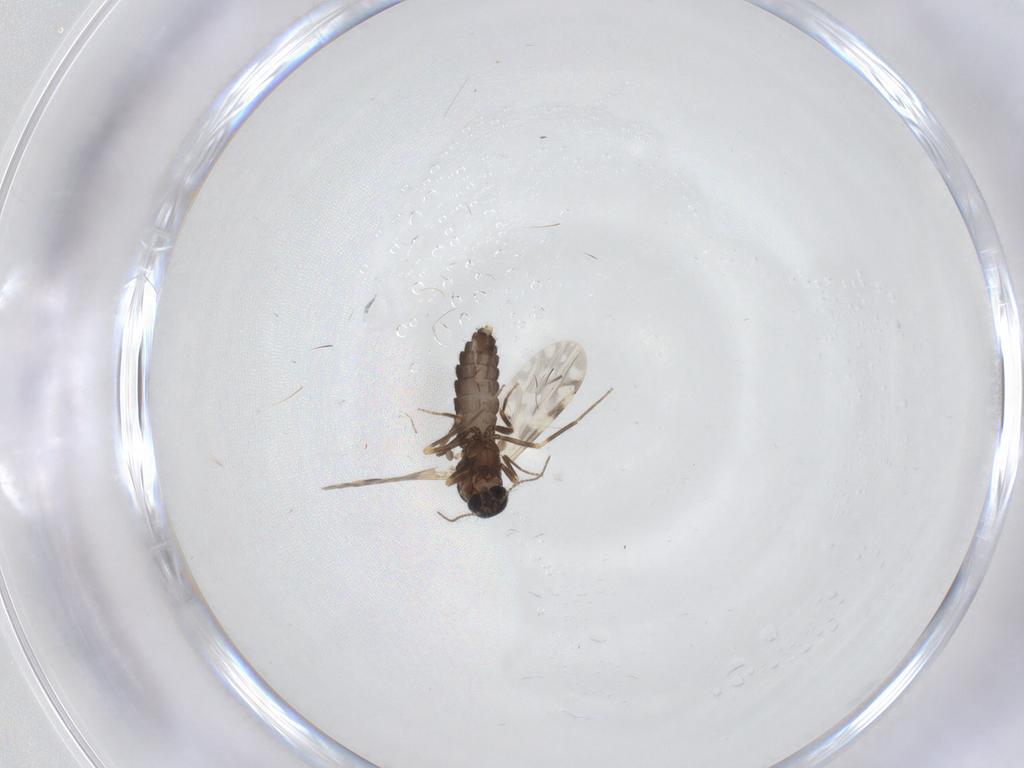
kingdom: Animalia
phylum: Arthropoda
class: Insecta
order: Diptera
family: Ceratopogonidae
